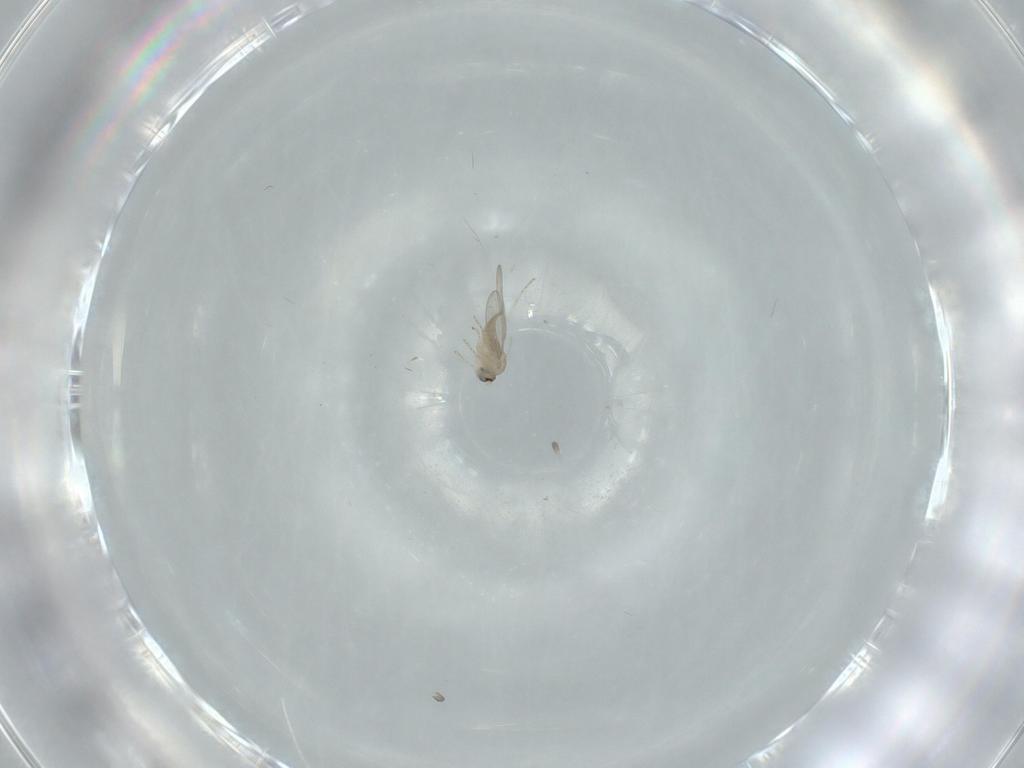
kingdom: Animalia
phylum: Arthropoda
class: Insecta
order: Diptera
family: Cecidomyiidae
